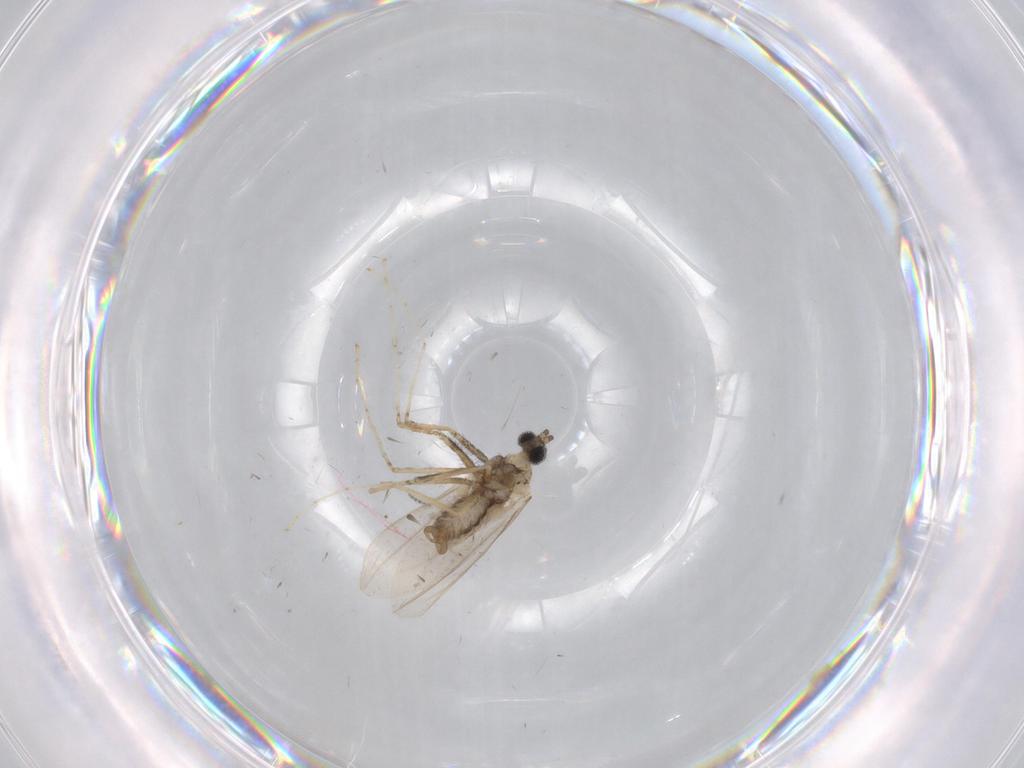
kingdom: Animalia
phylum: Arthropoda
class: Insecta
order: Diptera
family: Cecidomyiidae
